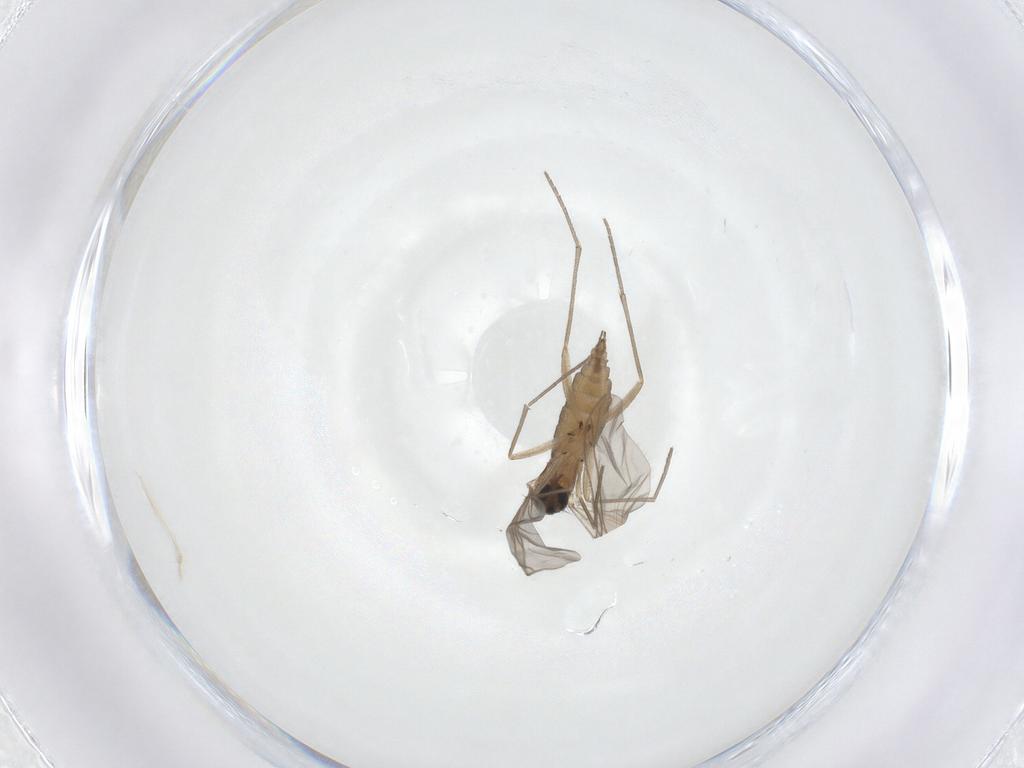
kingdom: Animalia
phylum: Arthropoda
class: Insecta
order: Diptera
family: Sciaridae
